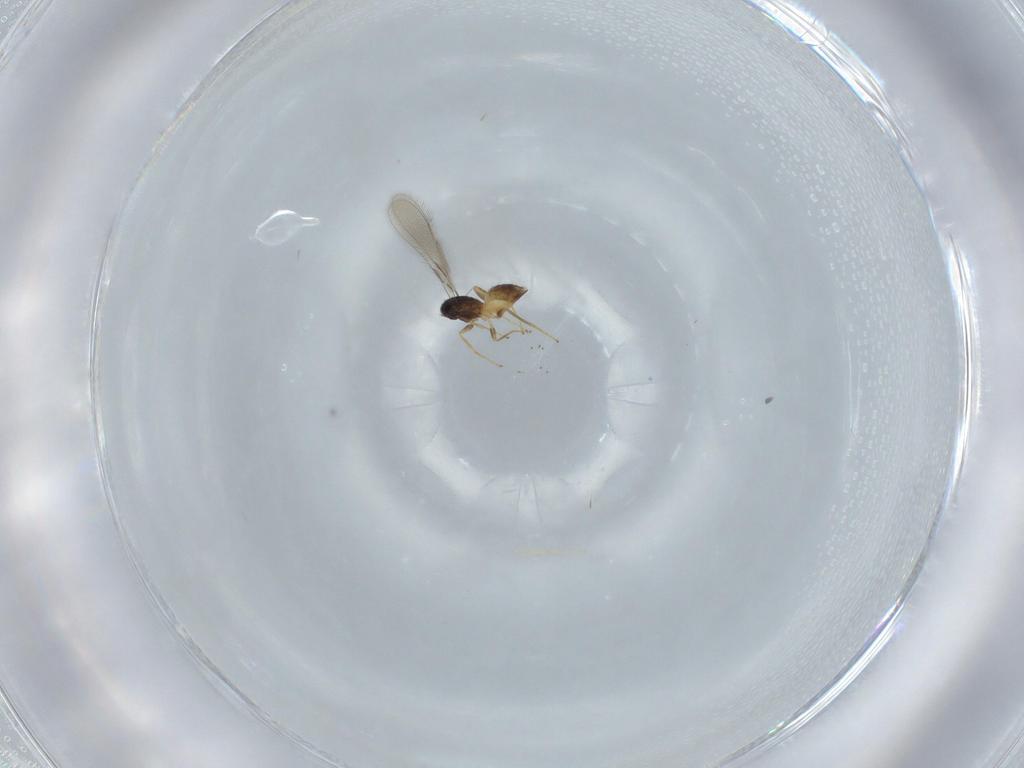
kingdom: Animalia
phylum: Arthropoda
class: Insecta
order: Hymenoptera
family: Mymaridae
